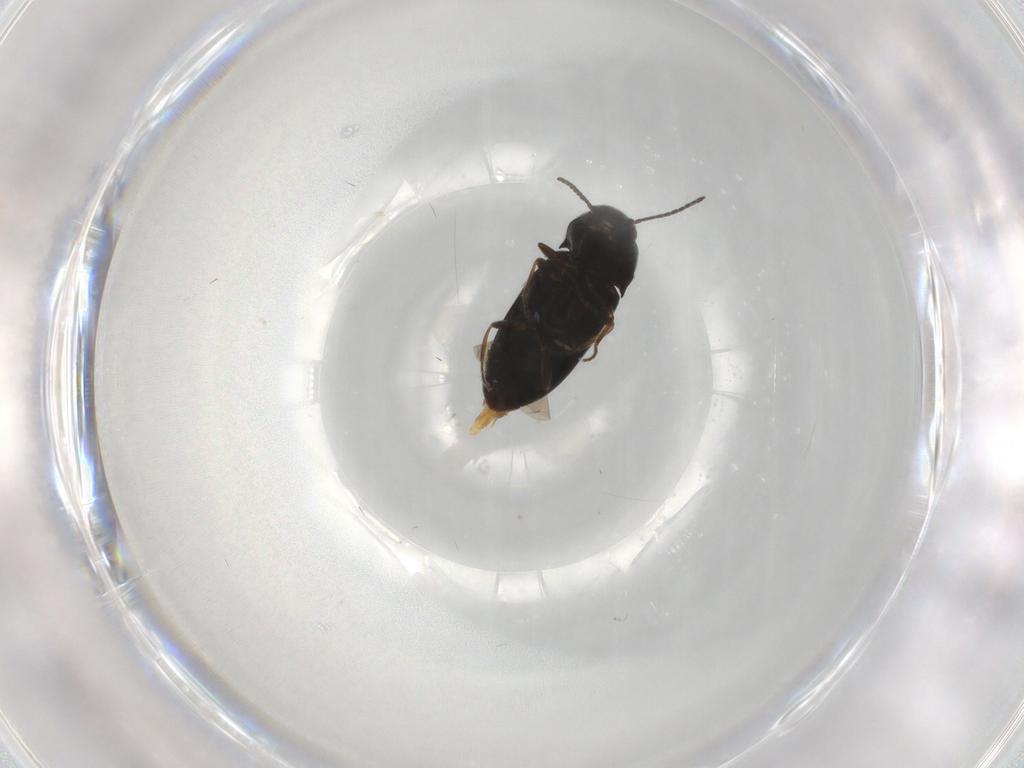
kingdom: Animalia
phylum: Arthropoda
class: Insecta
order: Coleoptera
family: Elateridae
